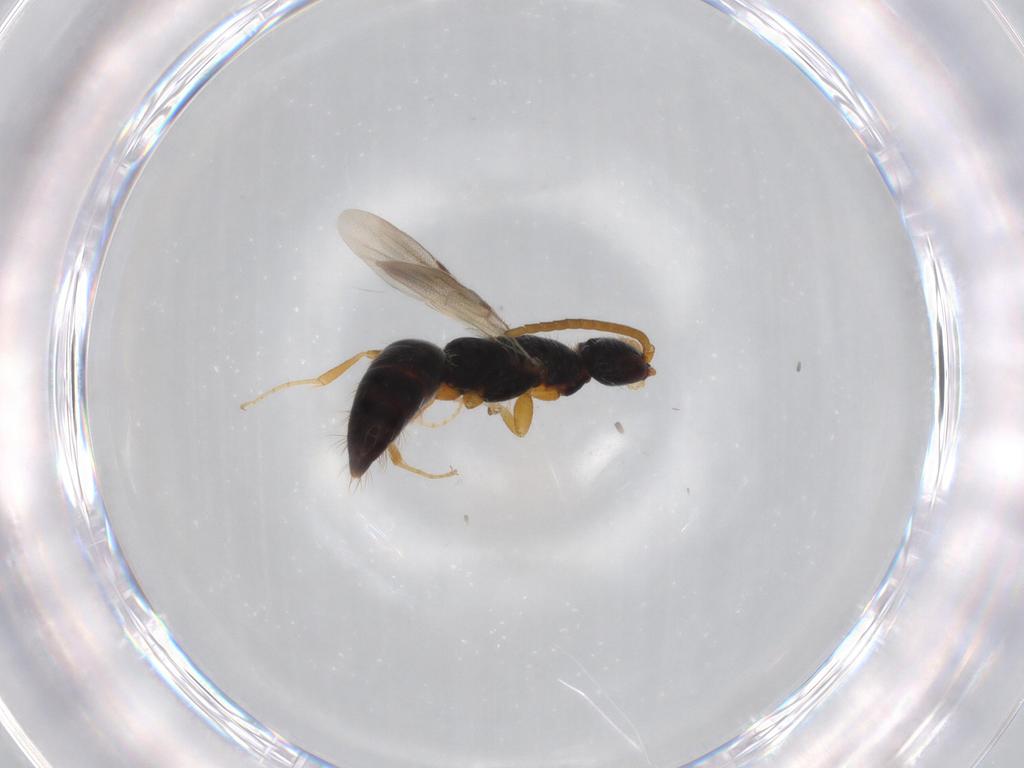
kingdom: Animalia
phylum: Arthropoda
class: Insecta
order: Hymenoptera
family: Bethylidae
